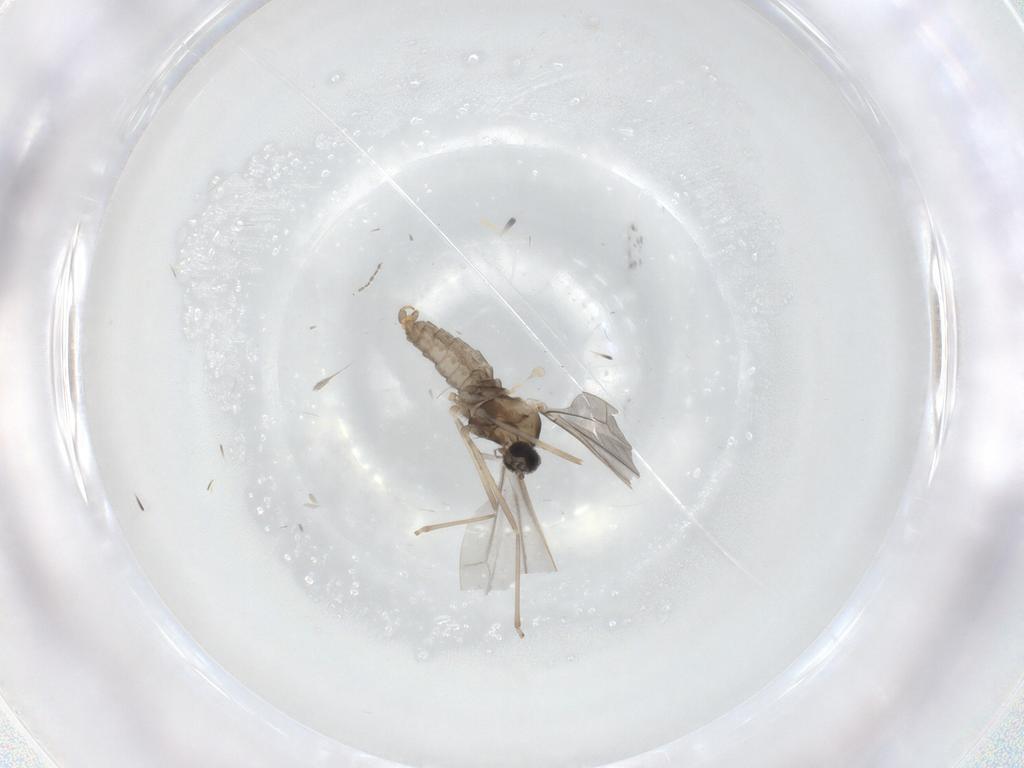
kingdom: Animalia
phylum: Arthropoda
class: Insecta
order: Diptera
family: Cecidomyiidae
